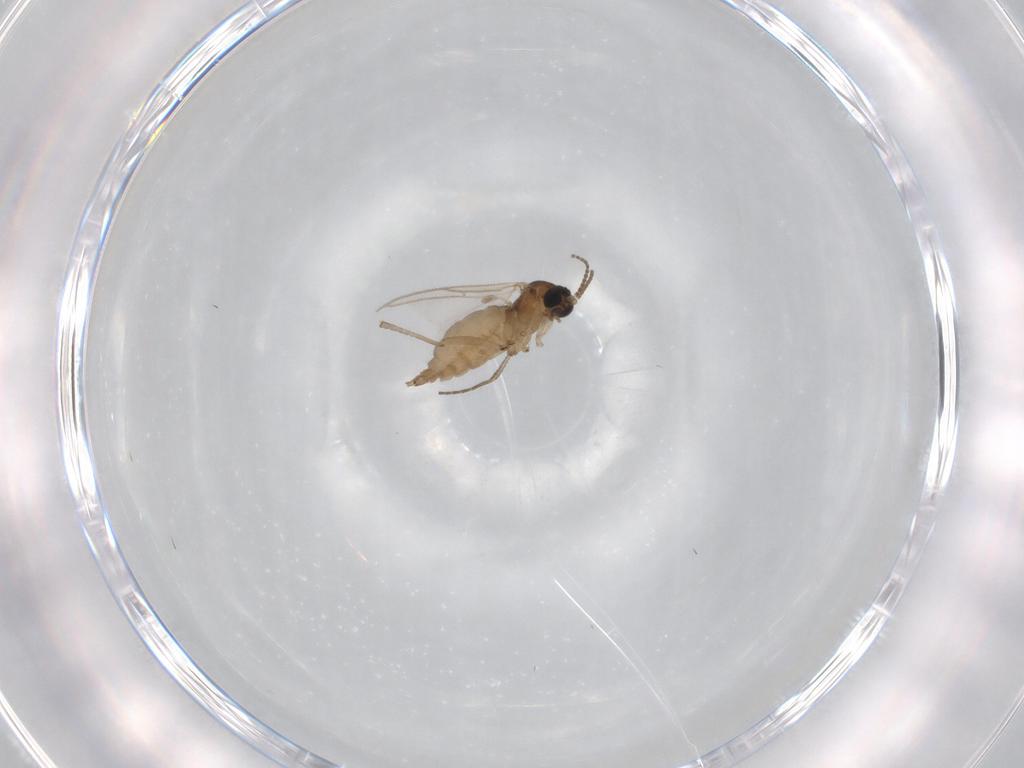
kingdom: Animalia
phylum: Arthropoda
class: Insecta
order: Diptera
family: Sciaridae
